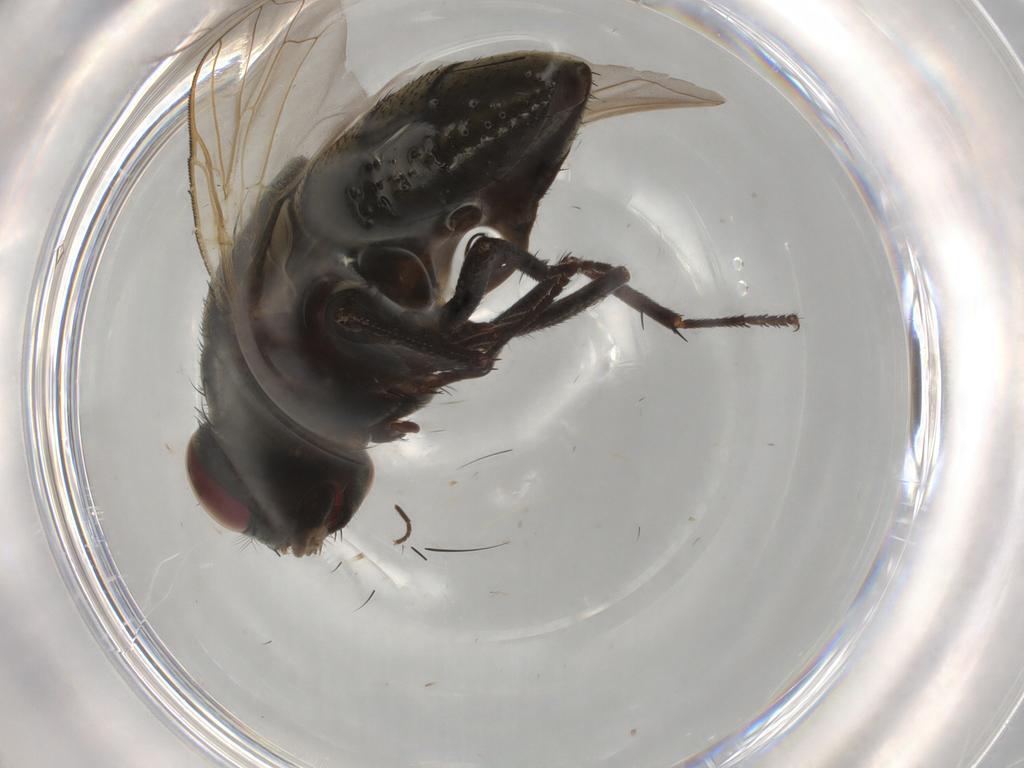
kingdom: Animalia
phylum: Arthropoda
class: Insecta
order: Diptera
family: Muscidae
